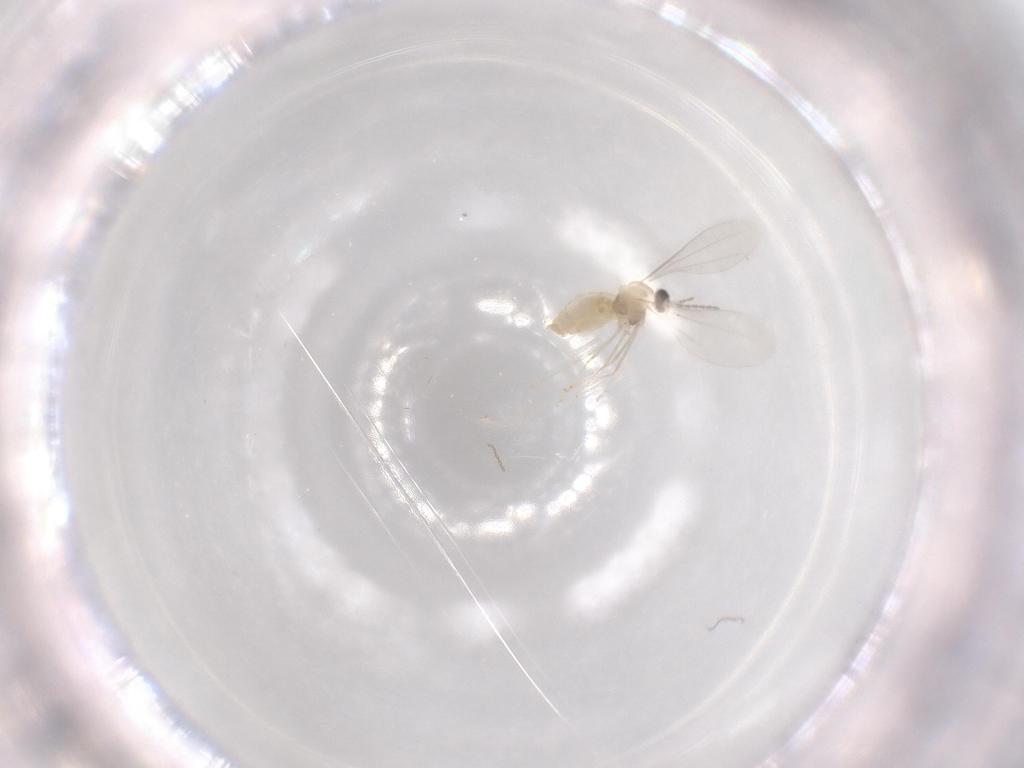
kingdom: Animalia
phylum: Arthropoda
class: Insecta
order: Diptera
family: Cecidomyiidae
